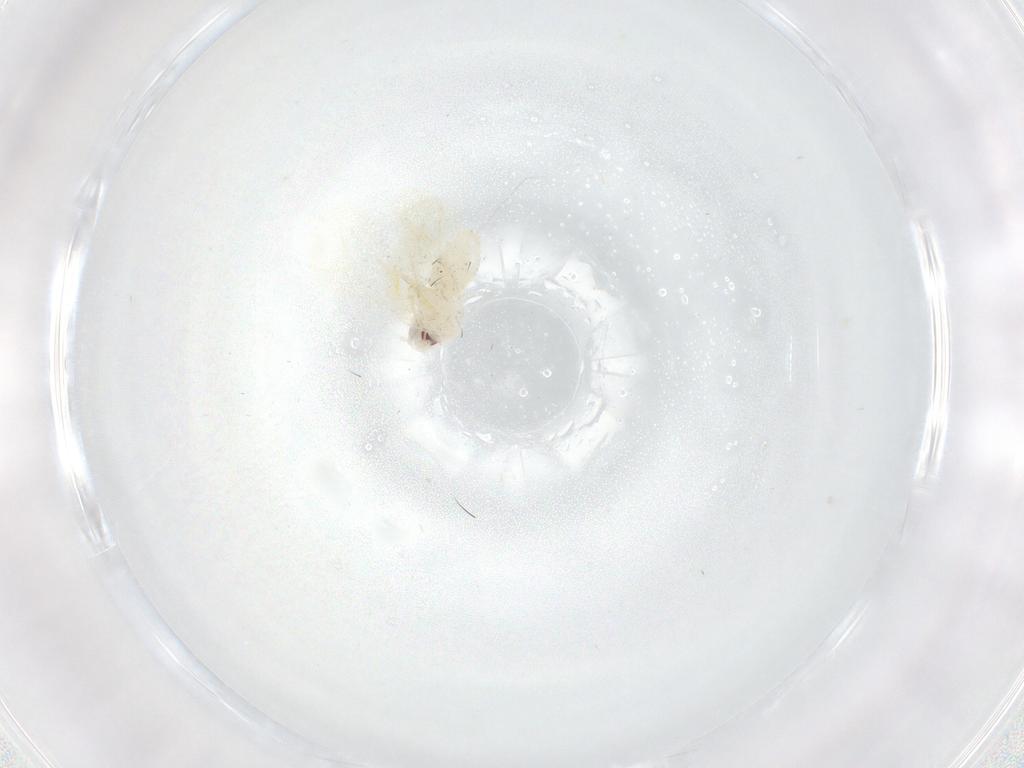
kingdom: Animalia
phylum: Arthropoda
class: Insecta
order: Hemiptera
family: Aleyrodidae
